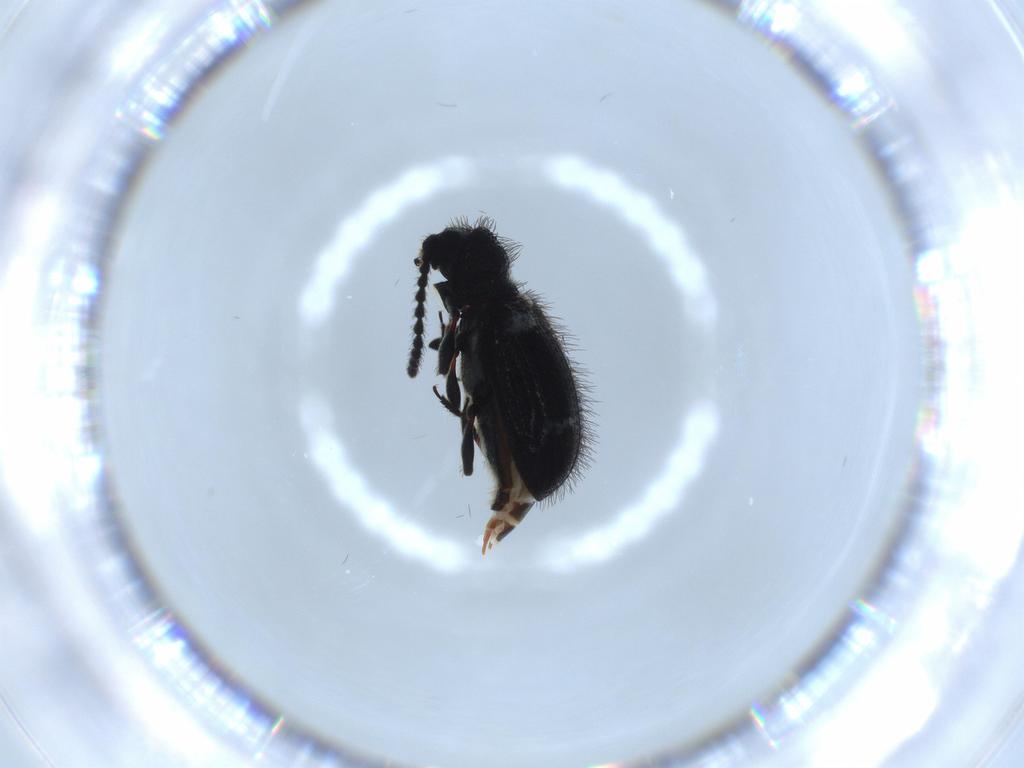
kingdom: Animalia
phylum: Arthropoda
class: Insecta
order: Coleoptera
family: Ptinidae
